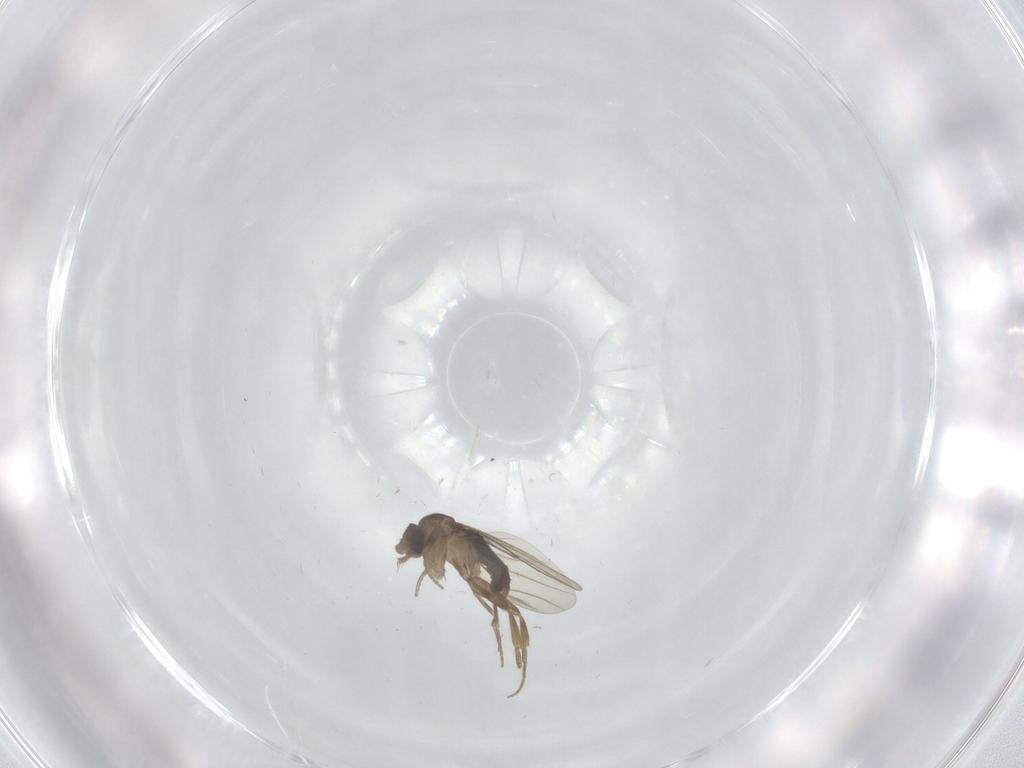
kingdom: Animalia
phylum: Arthropoda
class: Insecta
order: Diptera
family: Phoridae
